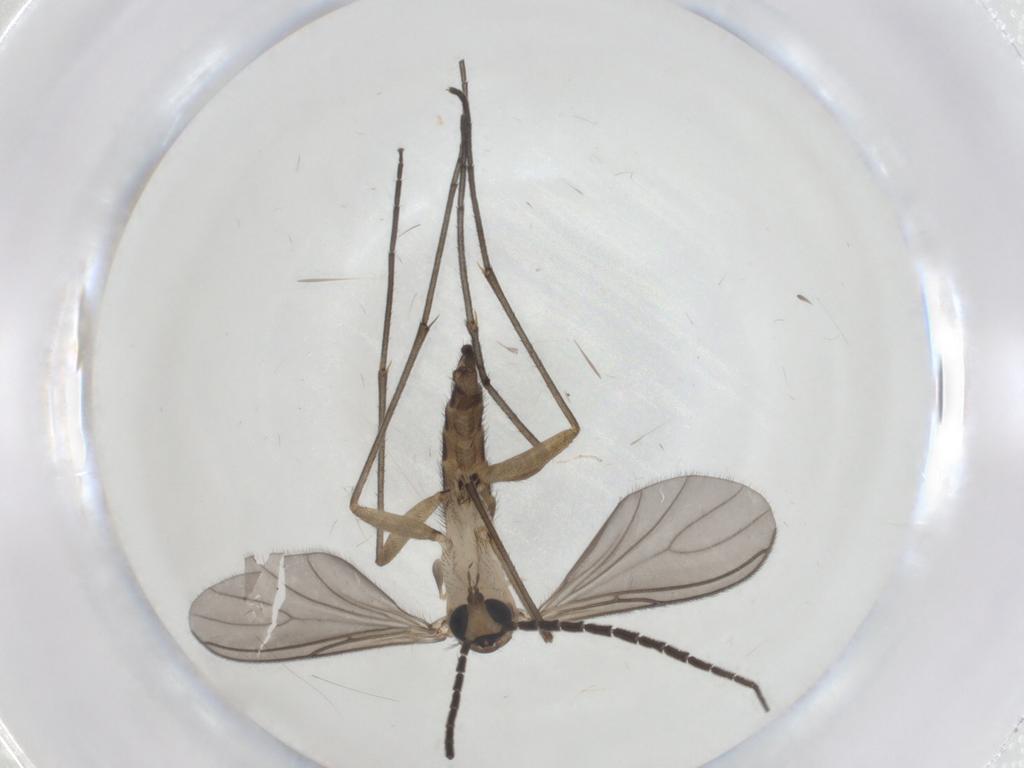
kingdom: Animalia
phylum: Arthropoda
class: Insecta
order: Diptera
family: Sciaridae
